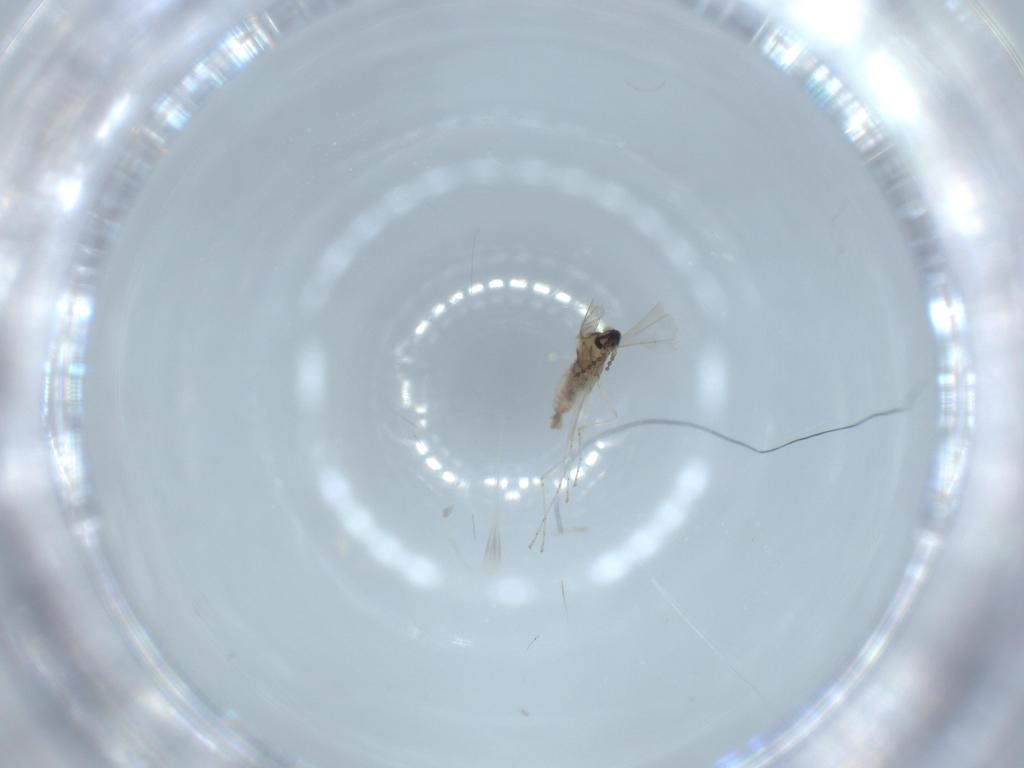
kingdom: Animalia
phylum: Arthropoda
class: Insecta
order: Diptera
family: Cecidomyiidae
